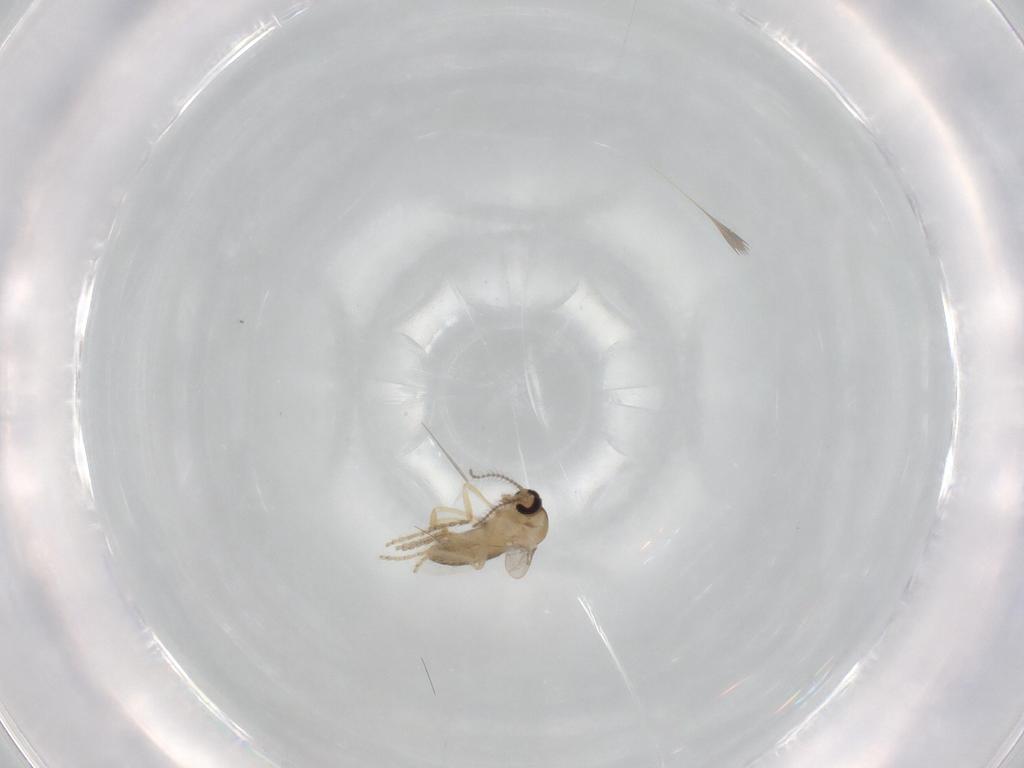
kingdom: Animalia
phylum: Arthropoda
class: Insecta
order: Diptera
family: Ceratopogonidae
